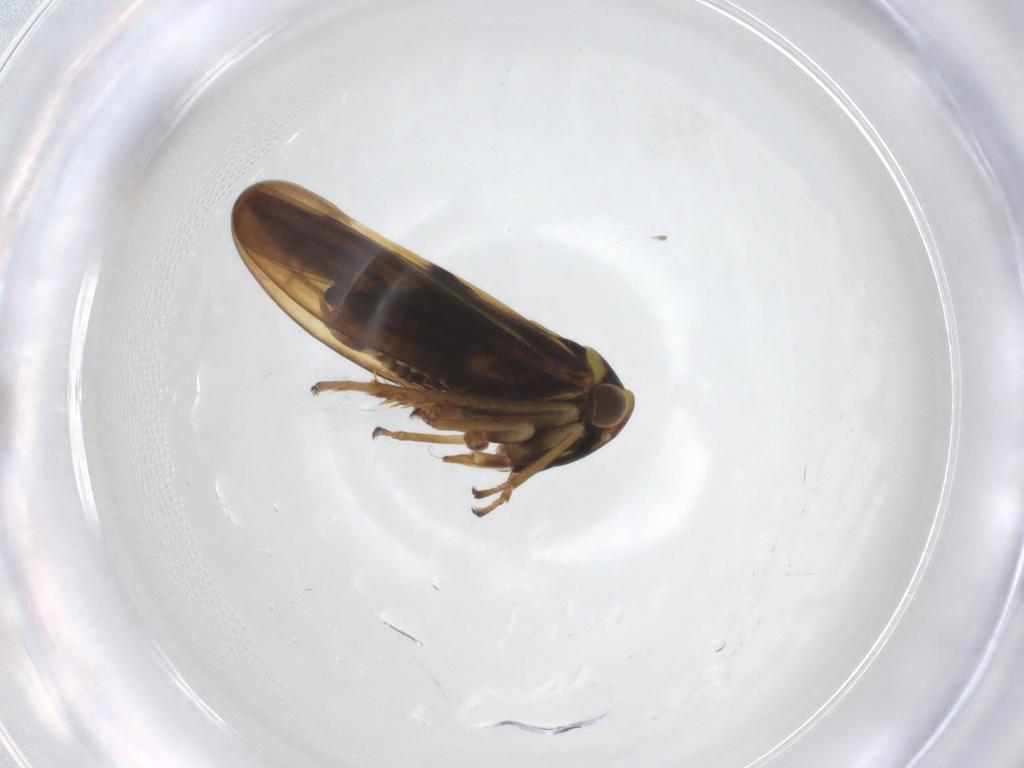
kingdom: Animalia
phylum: Arthropoda
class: Insecta
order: Hemiptera
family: Cicadellidae
